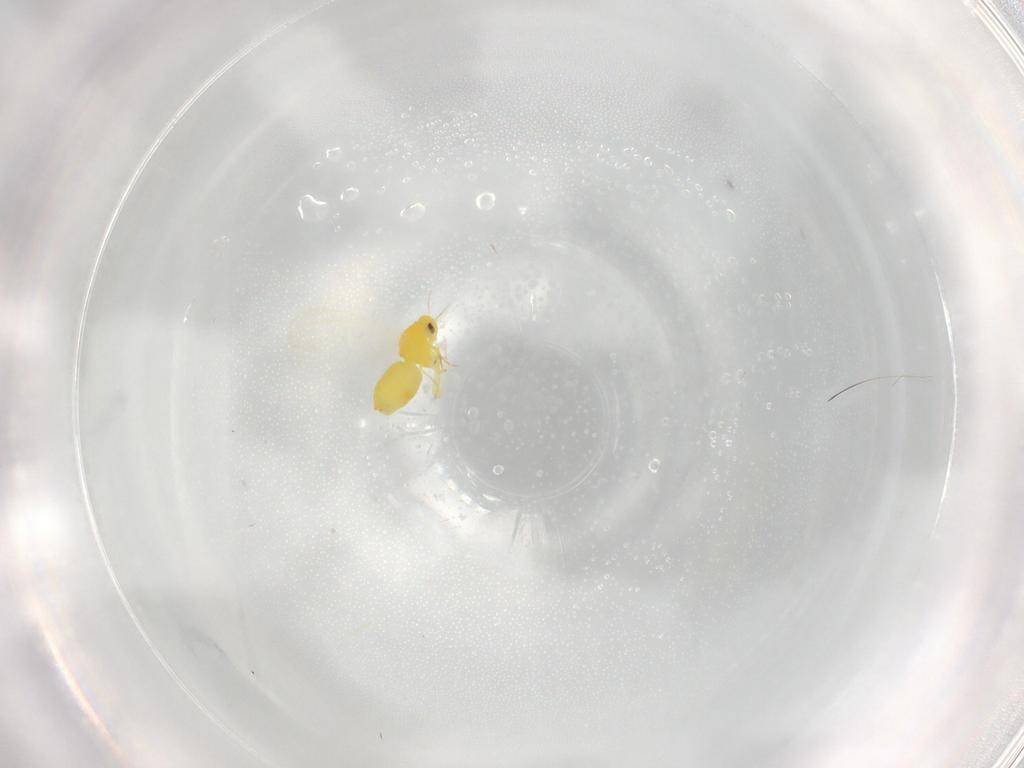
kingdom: Animalia
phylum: Arthropoda
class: Insecta
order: Hemiptera
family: Aleyrodidae
